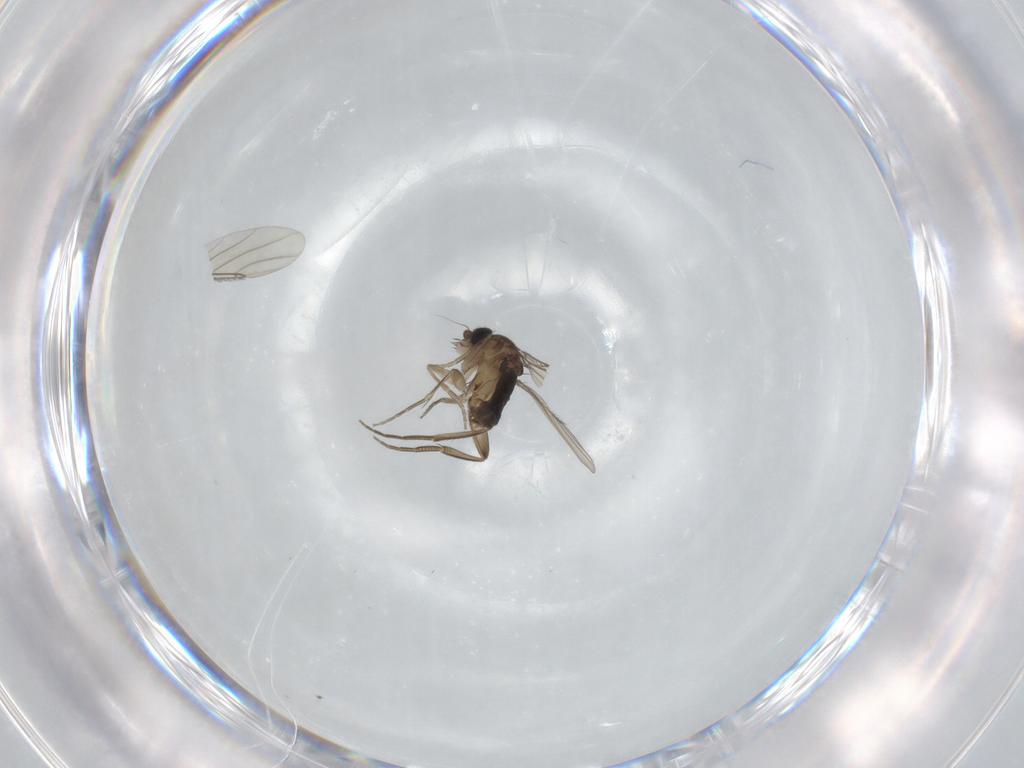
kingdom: Animalia
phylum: Arthropoda
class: Insecta
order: Diptera
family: Phoridae
